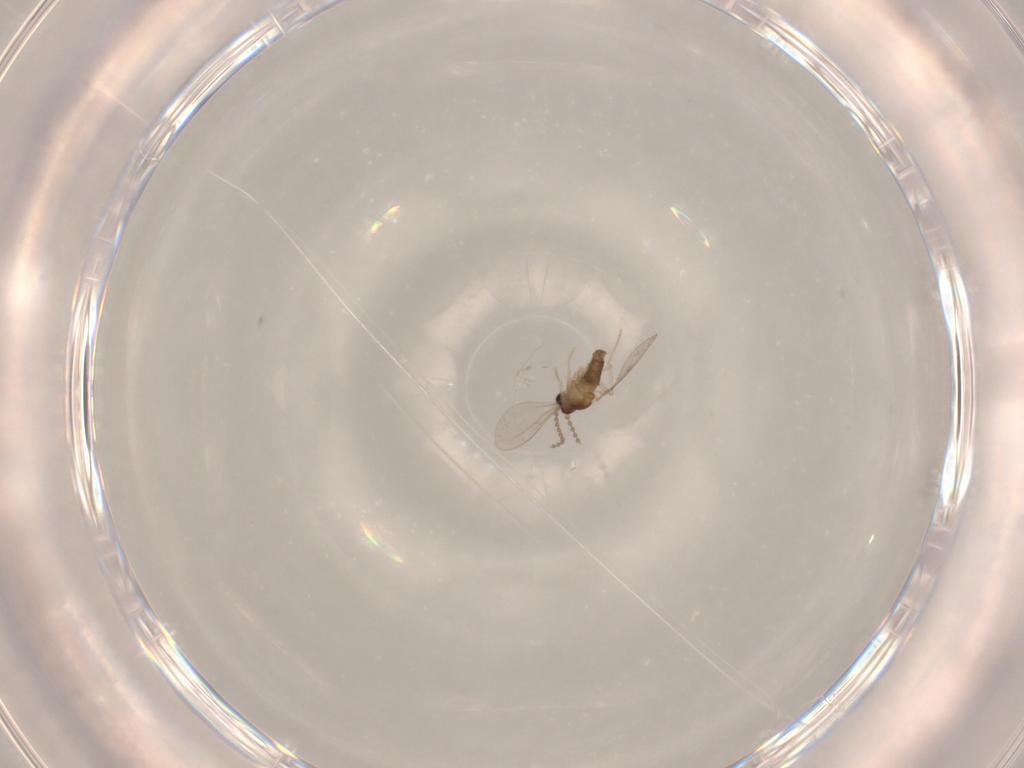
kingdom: Animalia
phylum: Arthropoda
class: Insecta
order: Diptera
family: Cecidomyiidae
